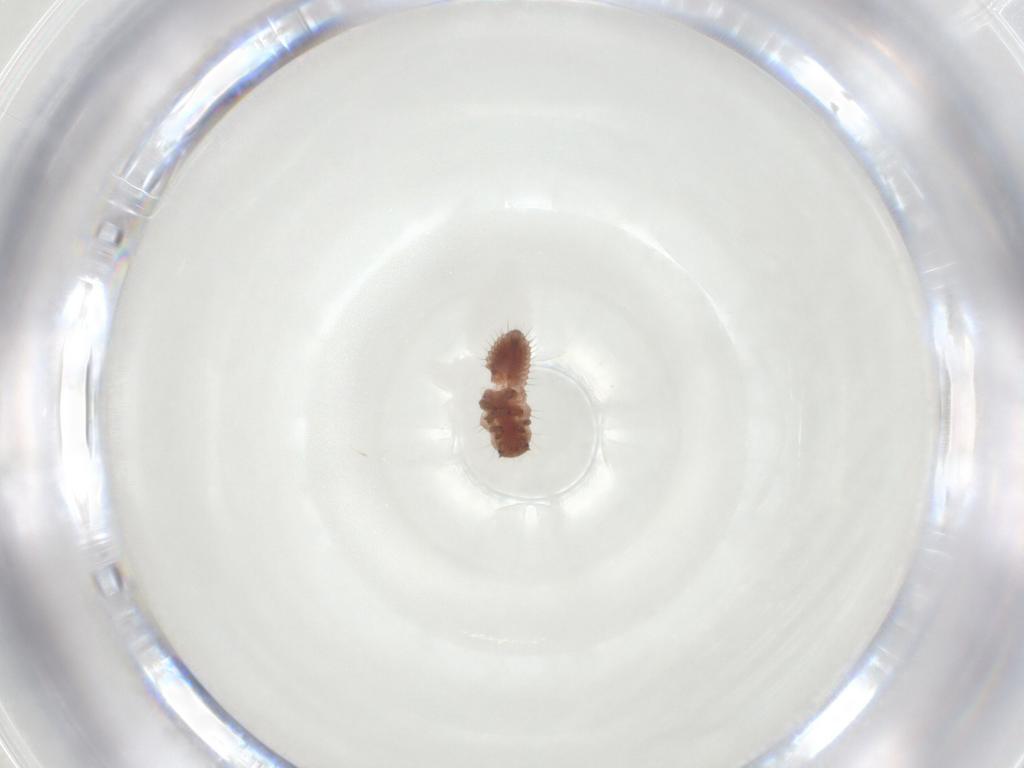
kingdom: Animalia
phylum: Arthropoda
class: Insecta
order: Coleoptera
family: Coccinellidae
